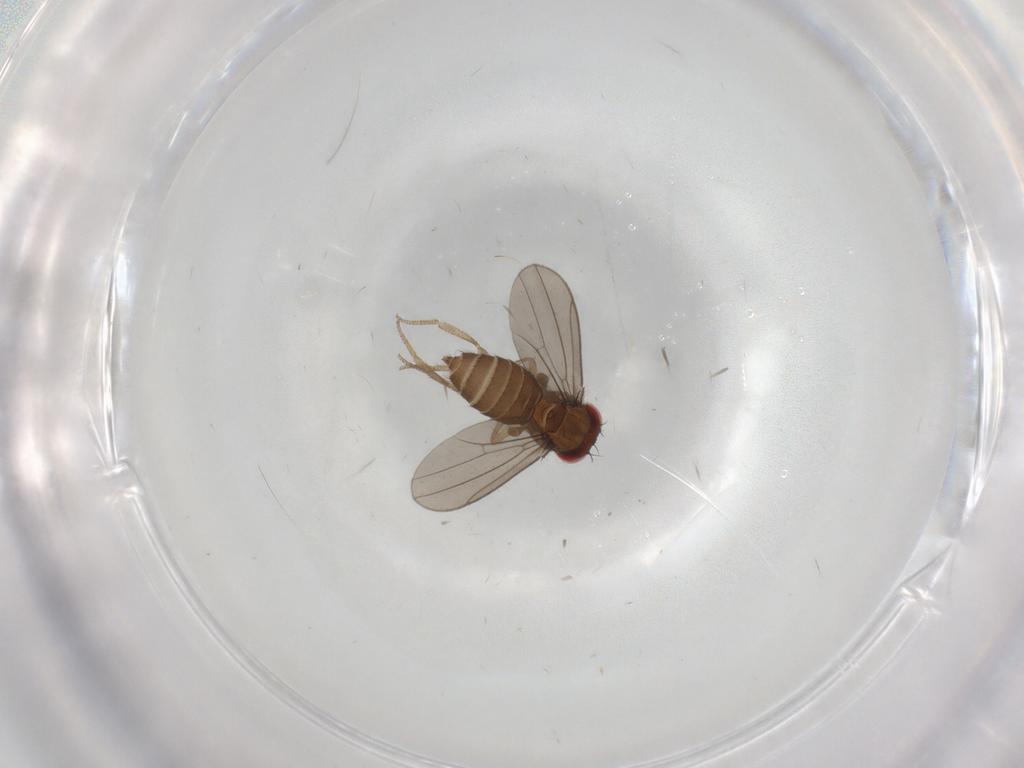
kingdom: Animalia
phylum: Arthropoda
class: Insecta
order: Diptera
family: Drosophilidae
